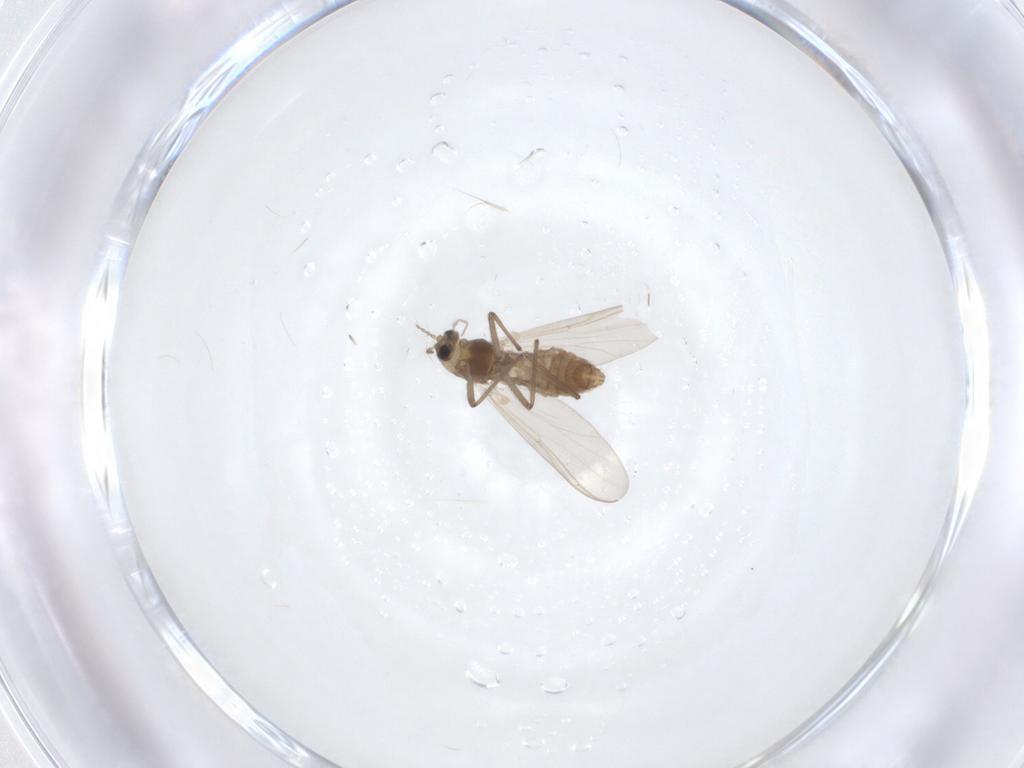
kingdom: Animalia
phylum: Arthropoda
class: Insecta
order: Diptera
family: Chironomidae
